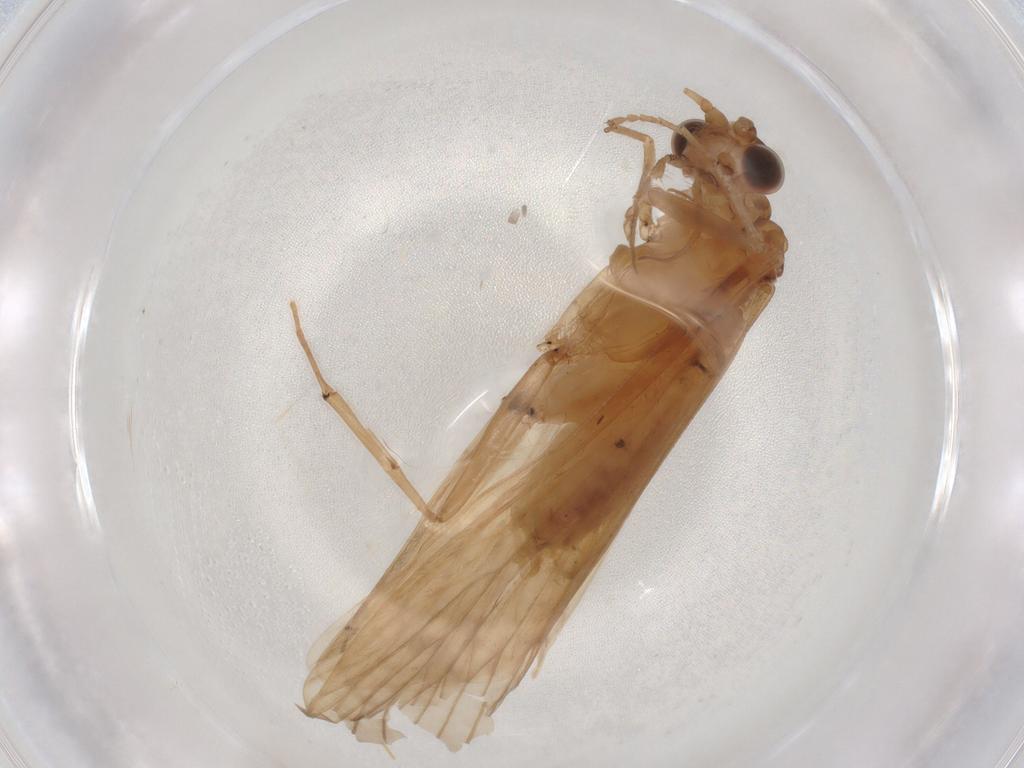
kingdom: Animalia
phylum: Arthropoda
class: Insecta
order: Trichoptera
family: Hydropsychidae
